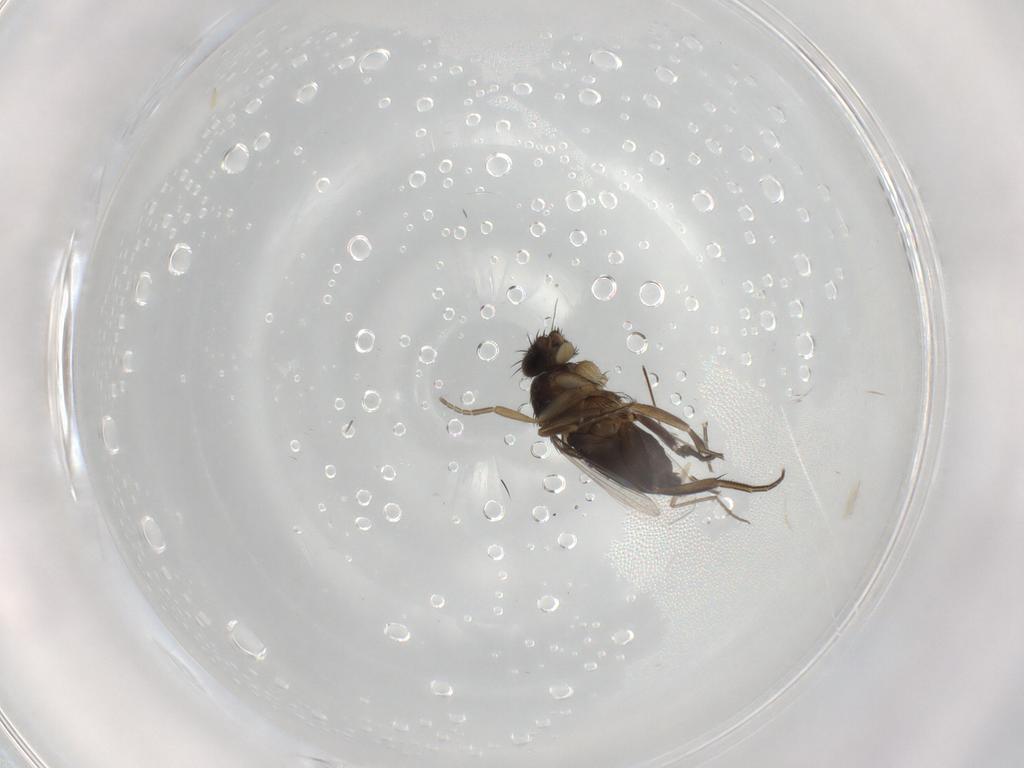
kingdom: Animalia
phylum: Arthropoda
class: Insecta
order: Diptera
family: Phoridae
